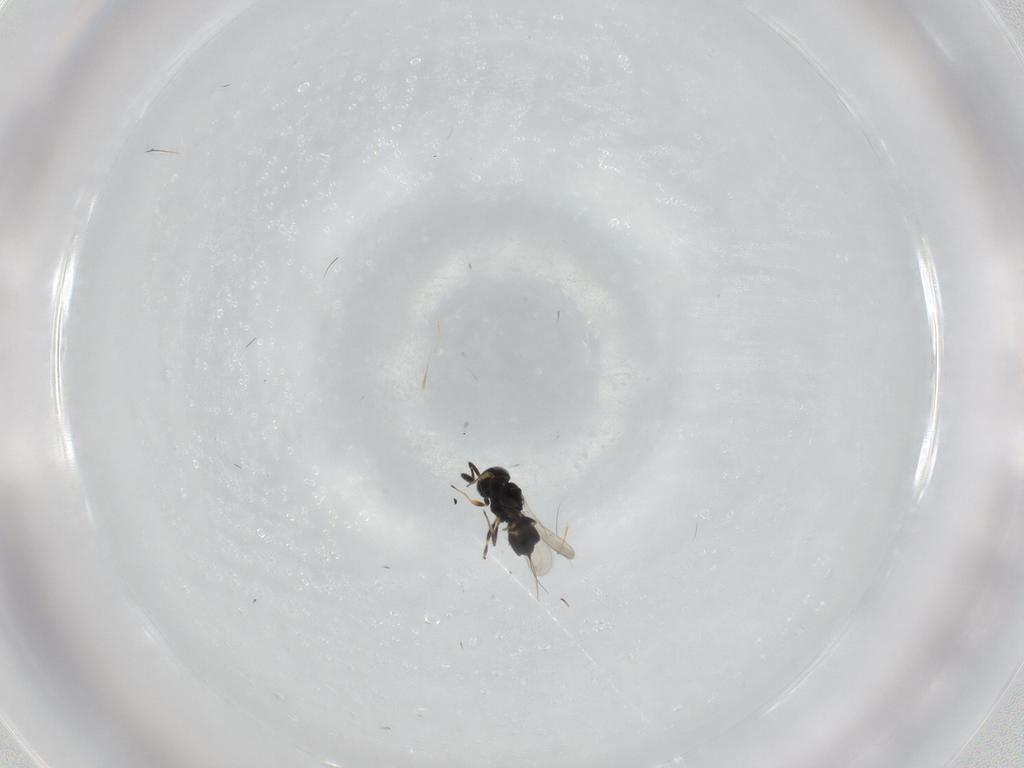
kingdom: Animalia
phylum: Arthropoda
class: Insecta
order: Hymenoptera
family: Scelionidae
